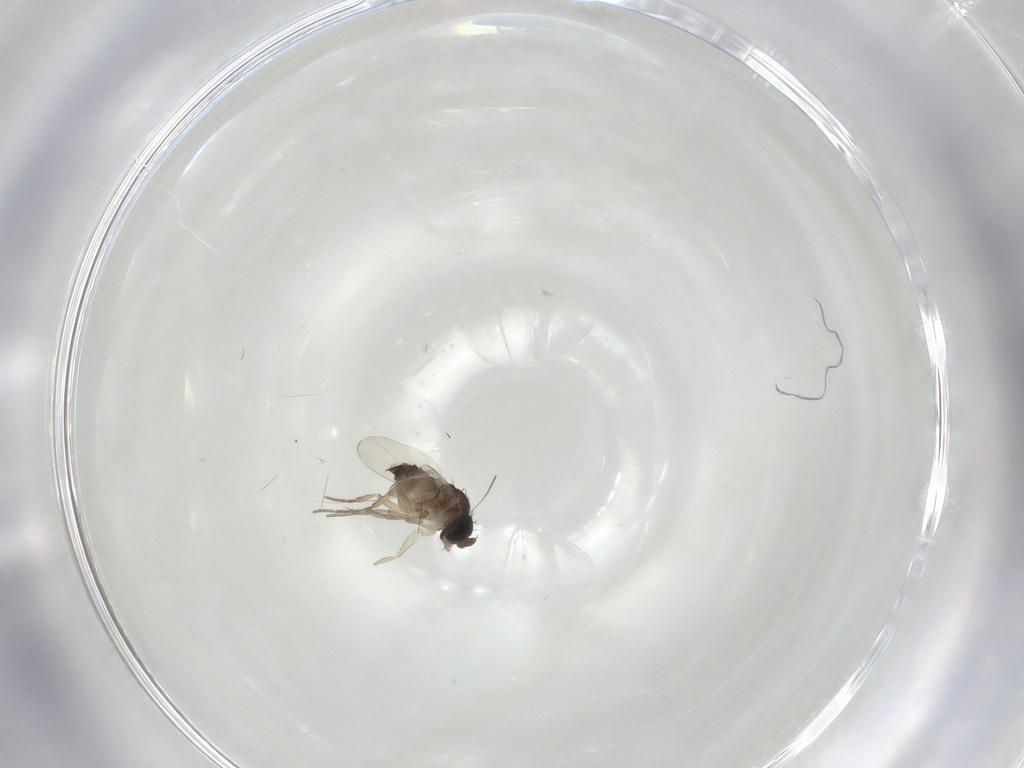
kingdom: Animalia
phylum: Arthropoda
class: Insecta
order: Diptera
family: Phoridae
